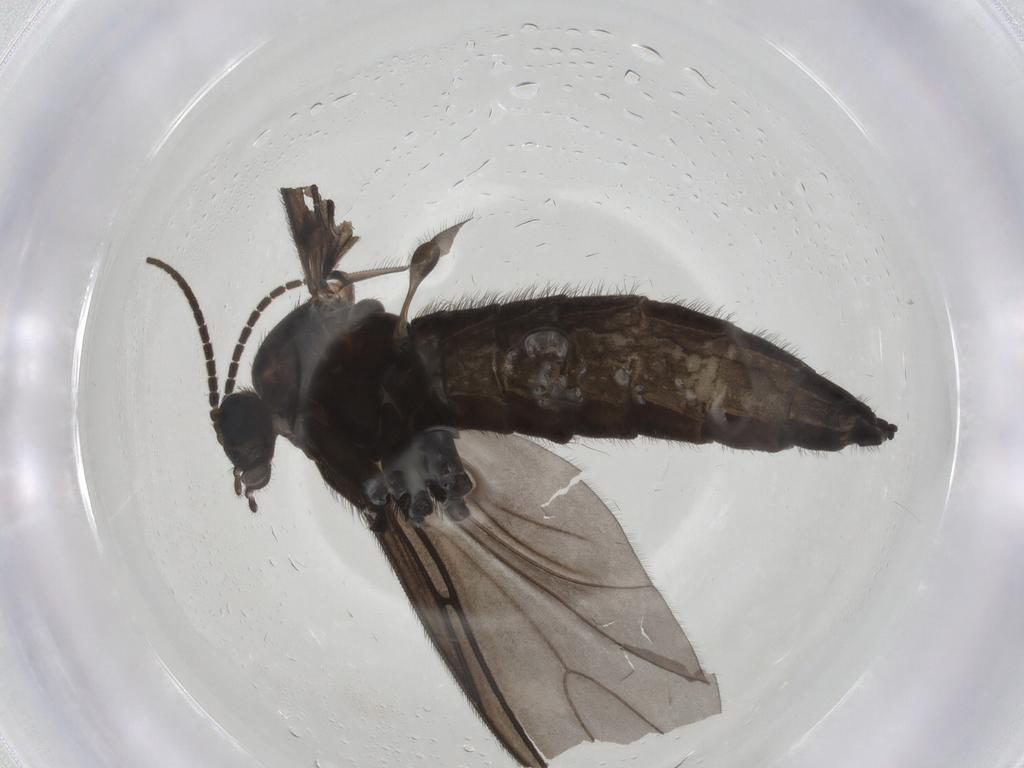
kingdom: Animalia
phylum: Arthropoda
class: Insecta
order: Diptera
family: Sciaridae
